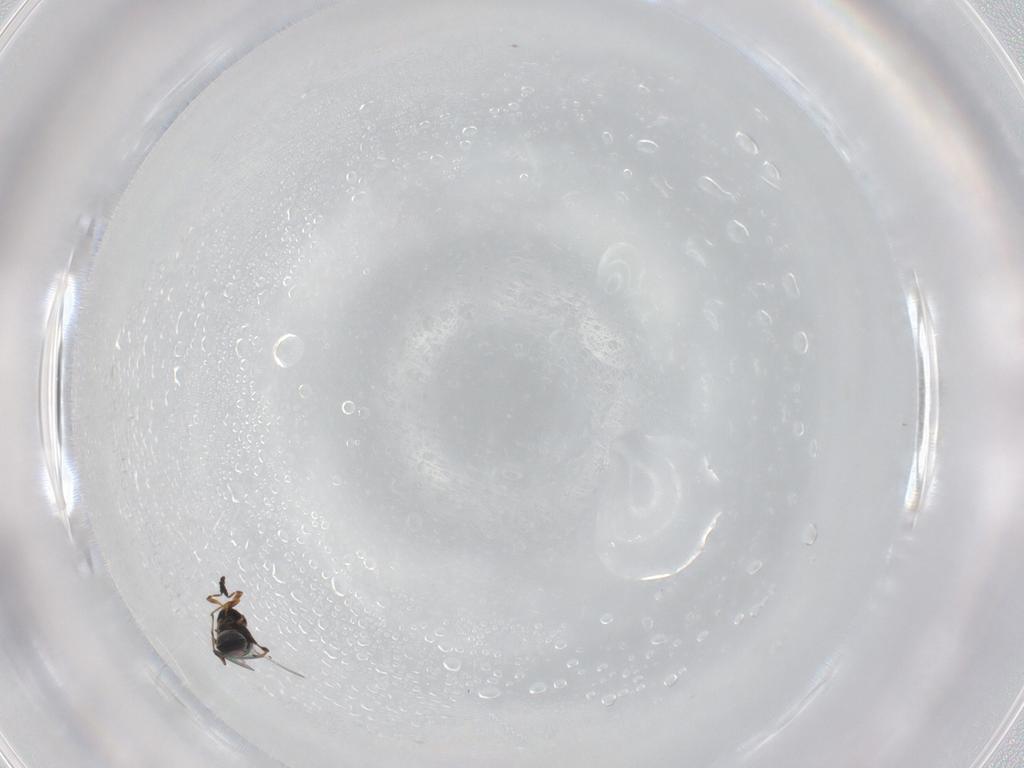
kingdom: Animalia
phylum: Arthropoda
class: Insecta
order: Hymenoptera
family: Platygastridae
